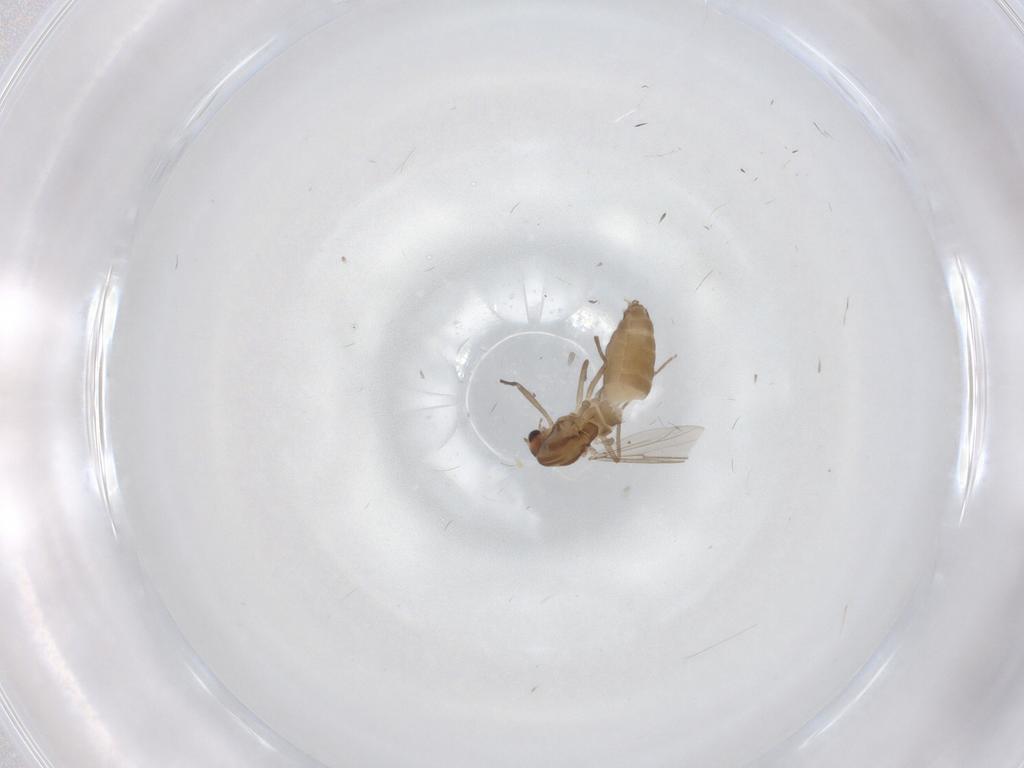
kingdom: Animalia
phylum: Arthropoda
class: Insecta
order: Diptera
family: Chironomidae
